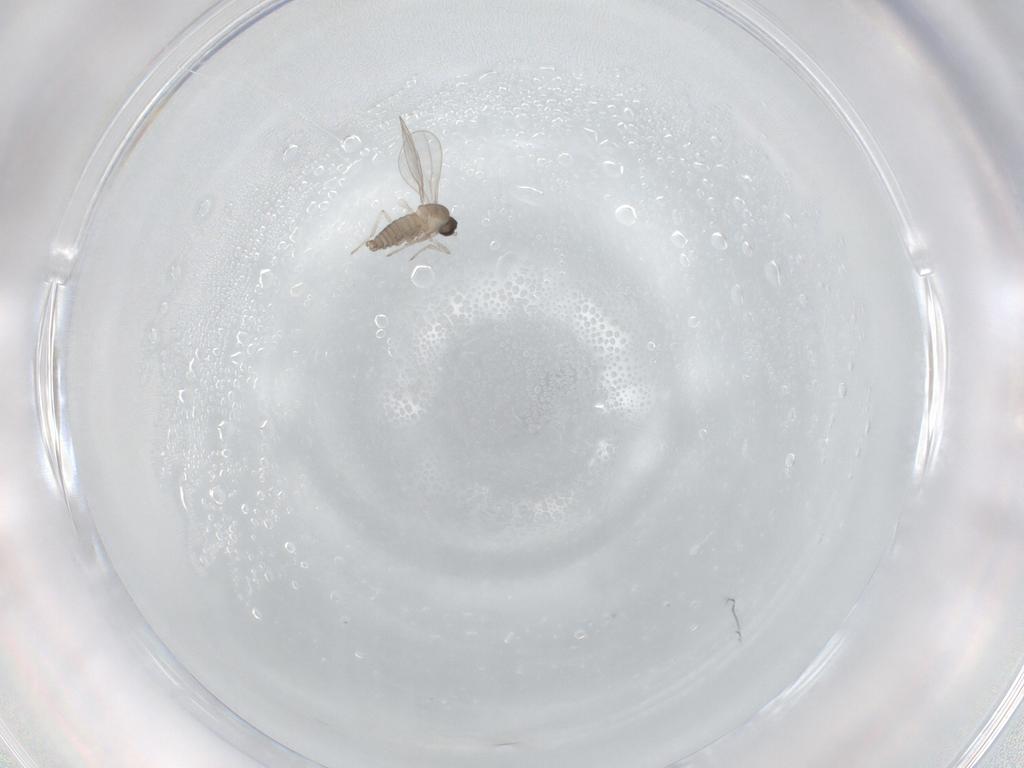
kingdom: Animalia
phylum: Arthropoda
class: Insecta
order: Diptera
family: Cecidomyiidae
